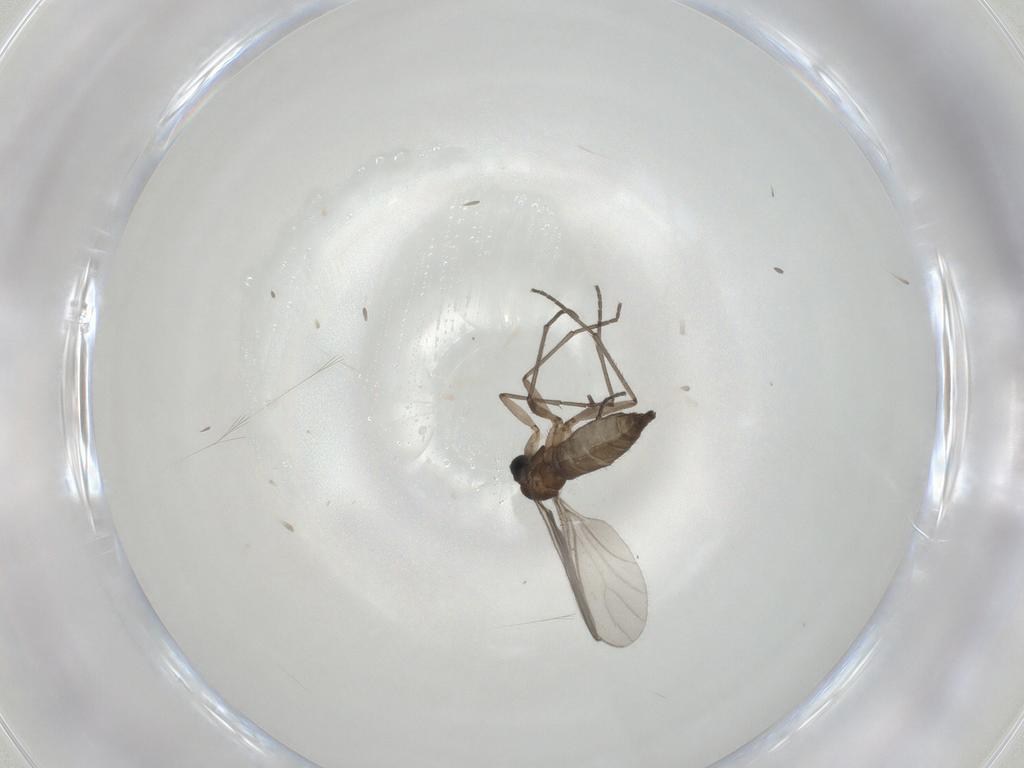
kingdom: Animalia
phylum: Arthropoda
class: Insecta
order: Diptera
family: Sciaridae
